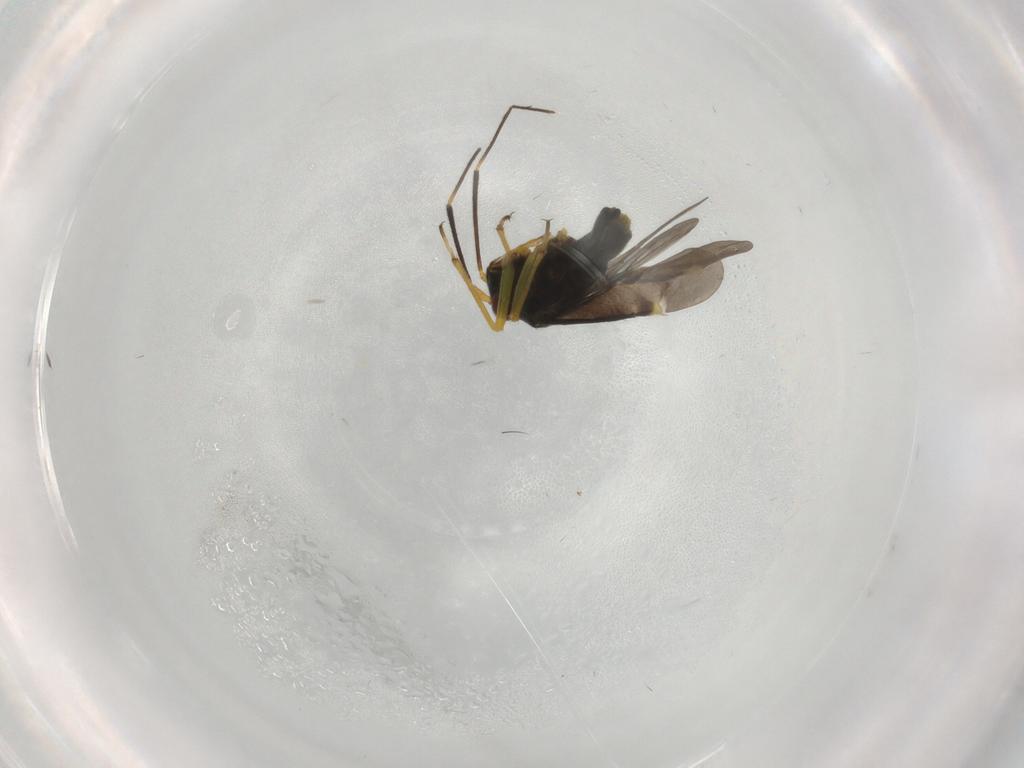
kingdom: Animalia
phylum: Arthropoda
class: Insecta
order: Hemiptera
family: Miridae
